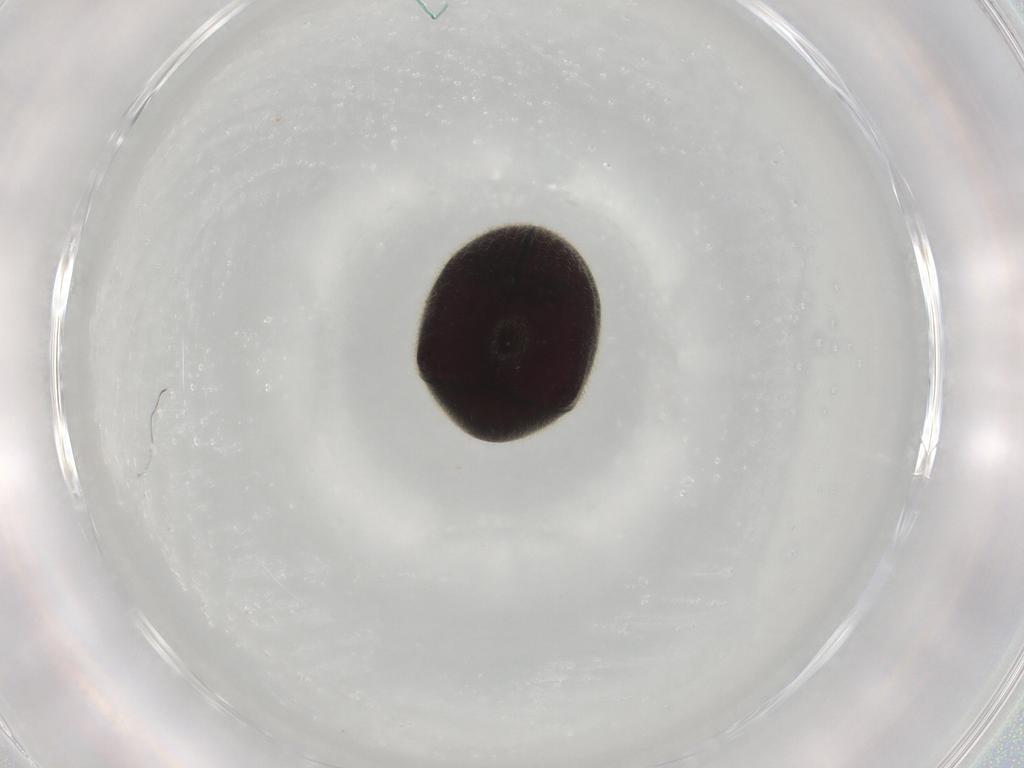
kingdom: Animalia
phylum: Arthropoda
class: Insecta
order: Coleoptera
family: Ptinidae
